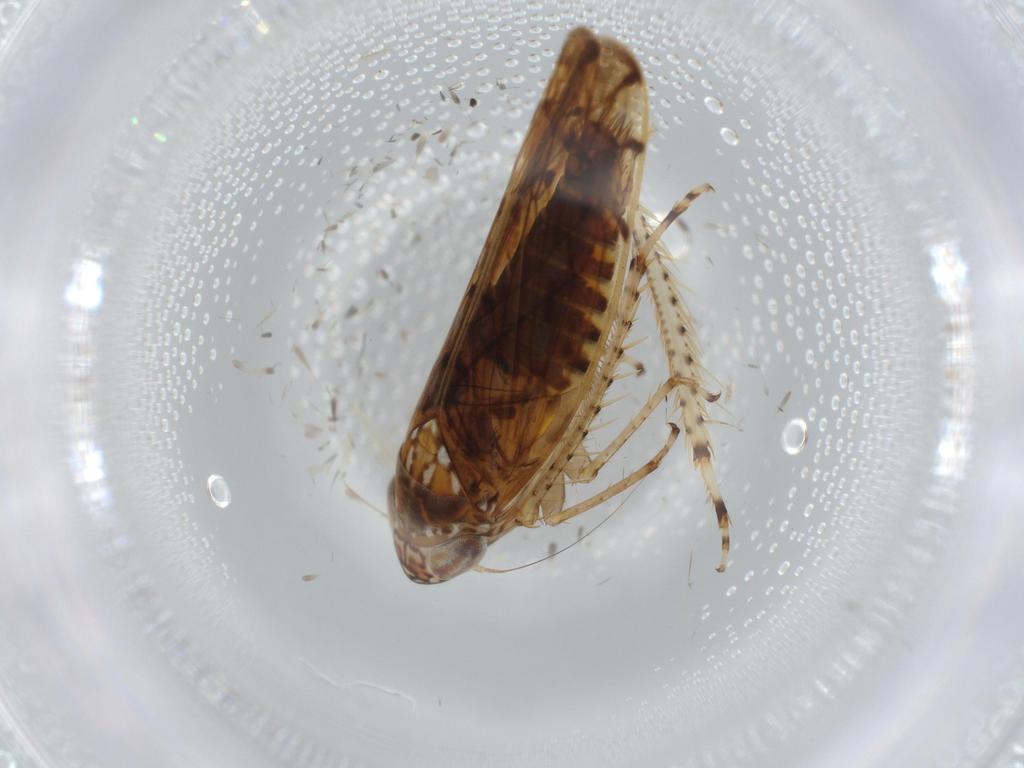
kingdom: Animalia
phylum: Arthropoda
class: Insecta
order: Hemiptera
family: Cicadellidae
